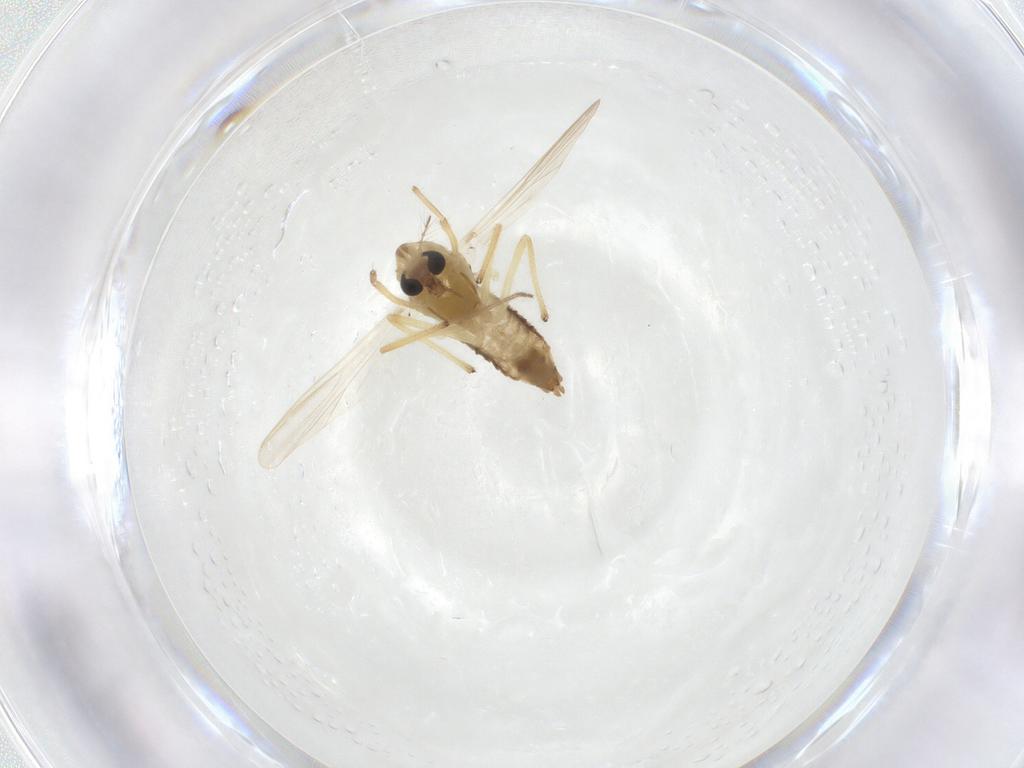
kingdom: Animalia
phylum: Arthropoda
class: Insecta
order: Diptera
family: Chironomidae
